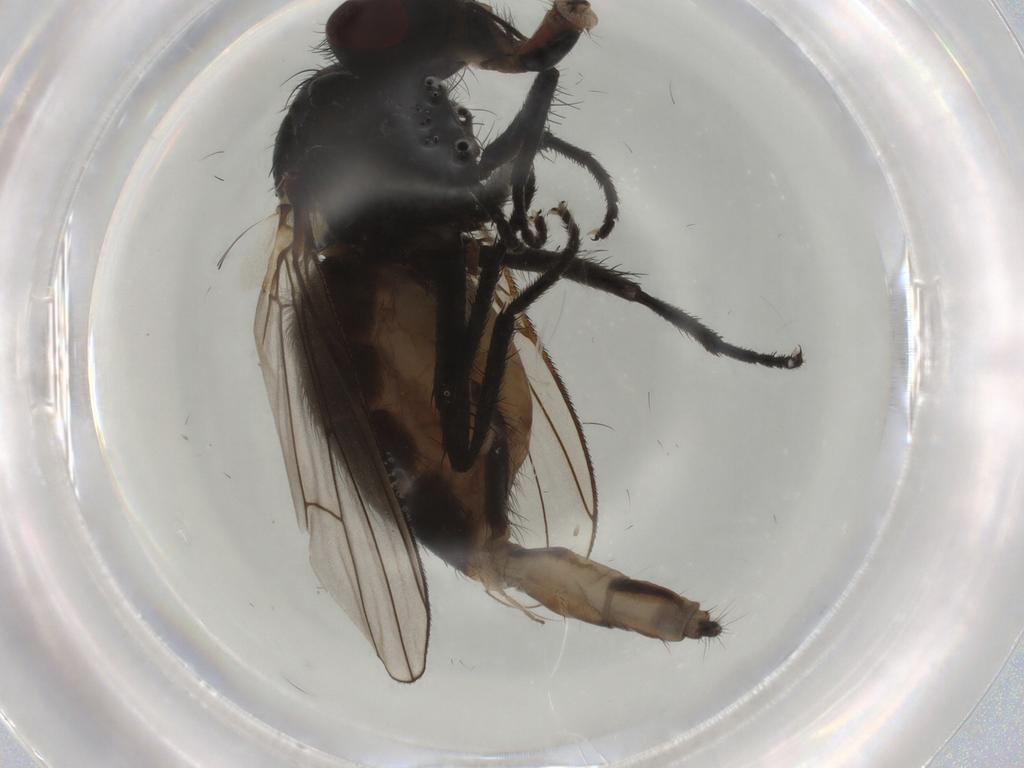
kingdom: Animalia
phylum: Arthropoda
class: Insecta
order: Diptera
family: Muscidae
